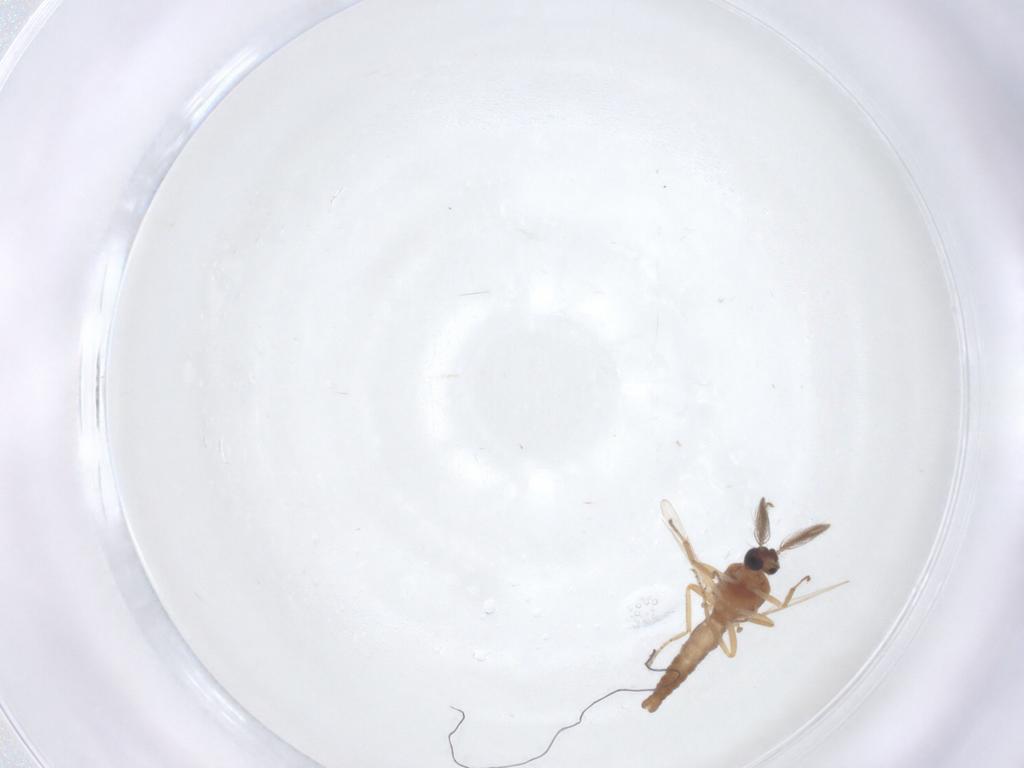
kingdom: Animalia
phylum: Arthropoda
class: Insecta
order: Diptera
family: Ceratopogonidae
